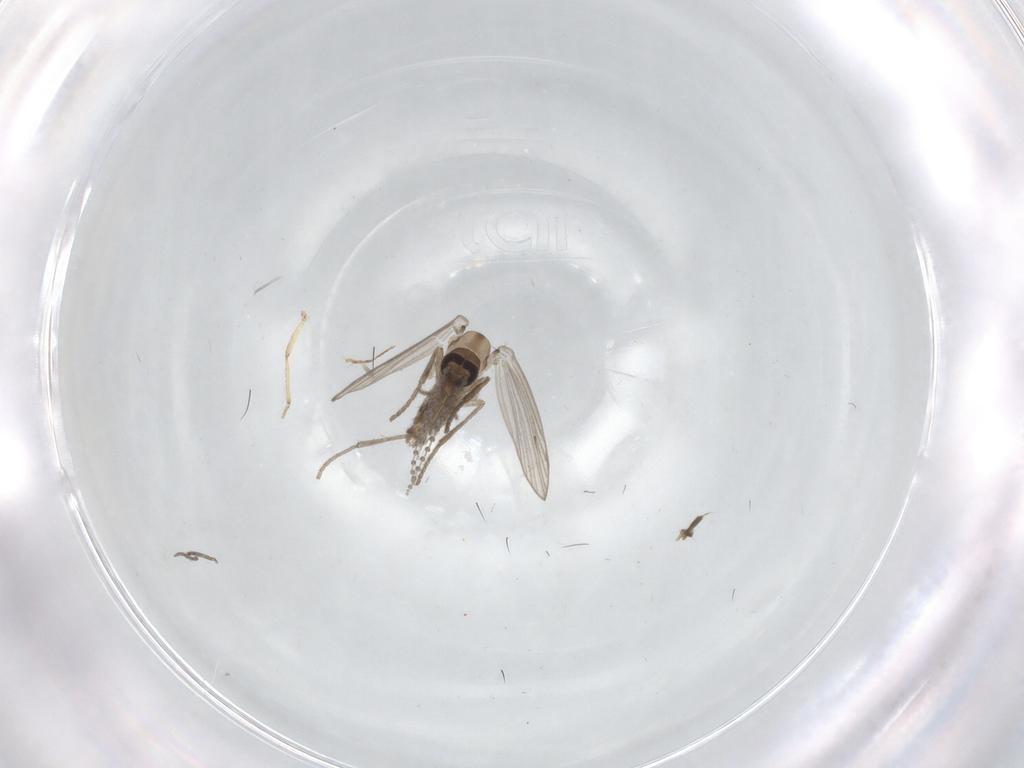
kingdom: Animalia
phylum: Arthropoda
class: Insecta
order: Diptera
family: Psychodidae
